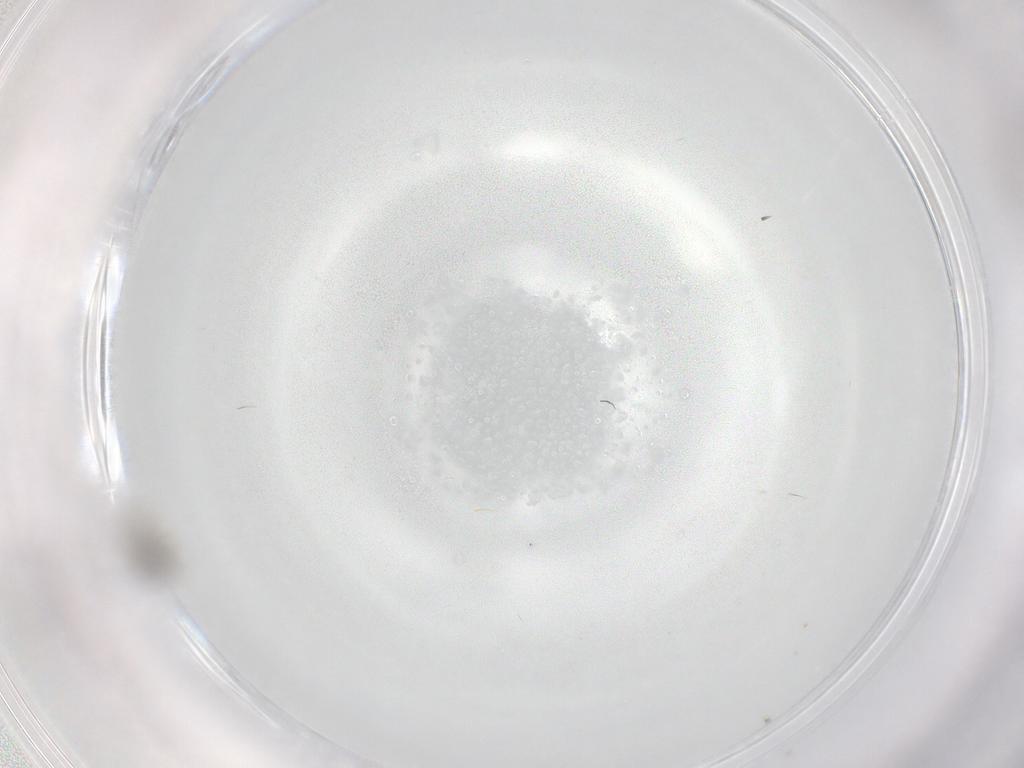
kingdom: Animalia
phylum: Arthropoda
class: Insecta
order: Diptera
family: Phoridae
